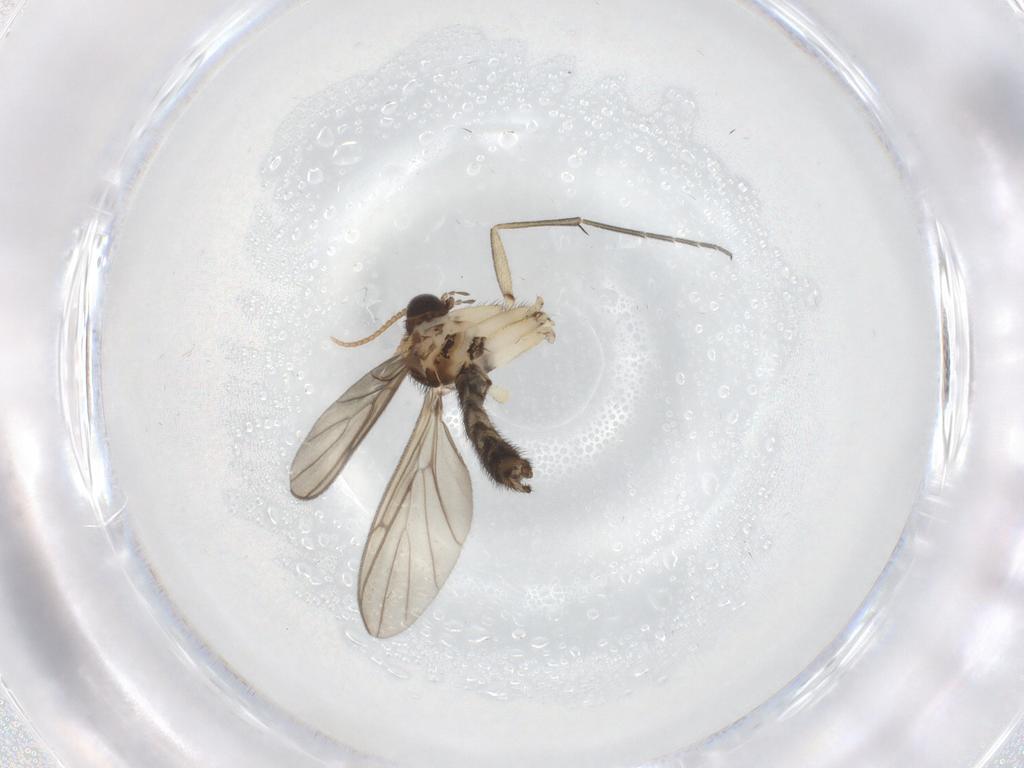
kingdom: Animalia
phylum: Arthropoda
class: Insecta
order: Diptera
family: Keroplatidae
